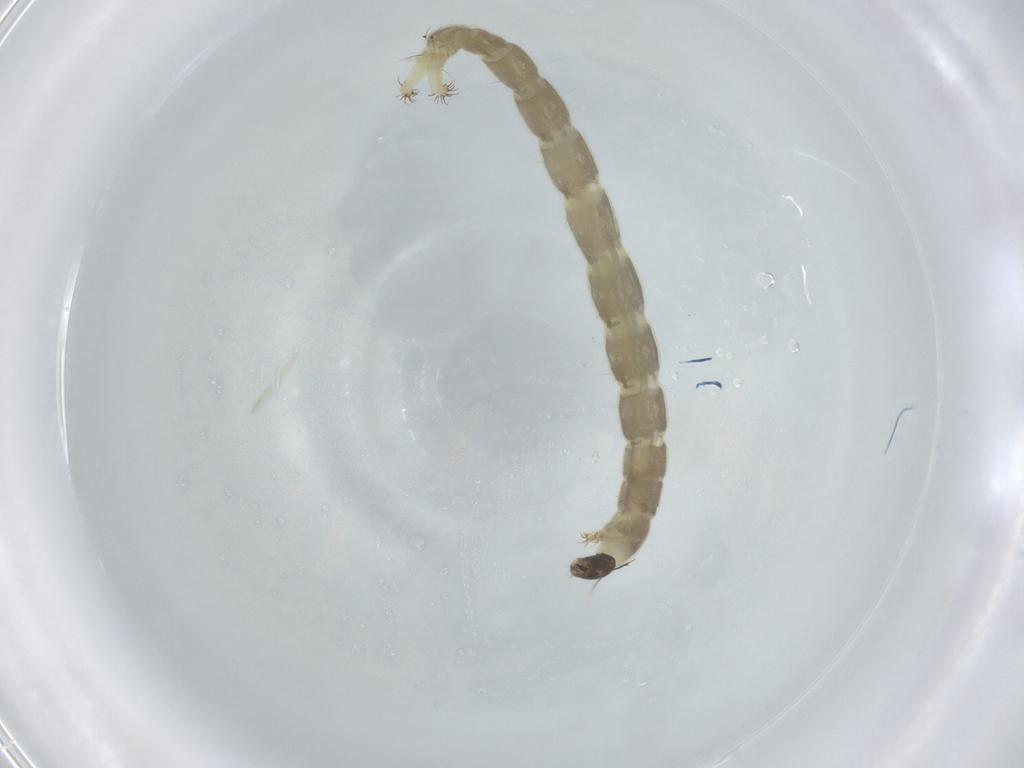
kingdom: Animalia
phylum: Arthropoda
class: Insecta
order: Diptera
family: Chironomidae
